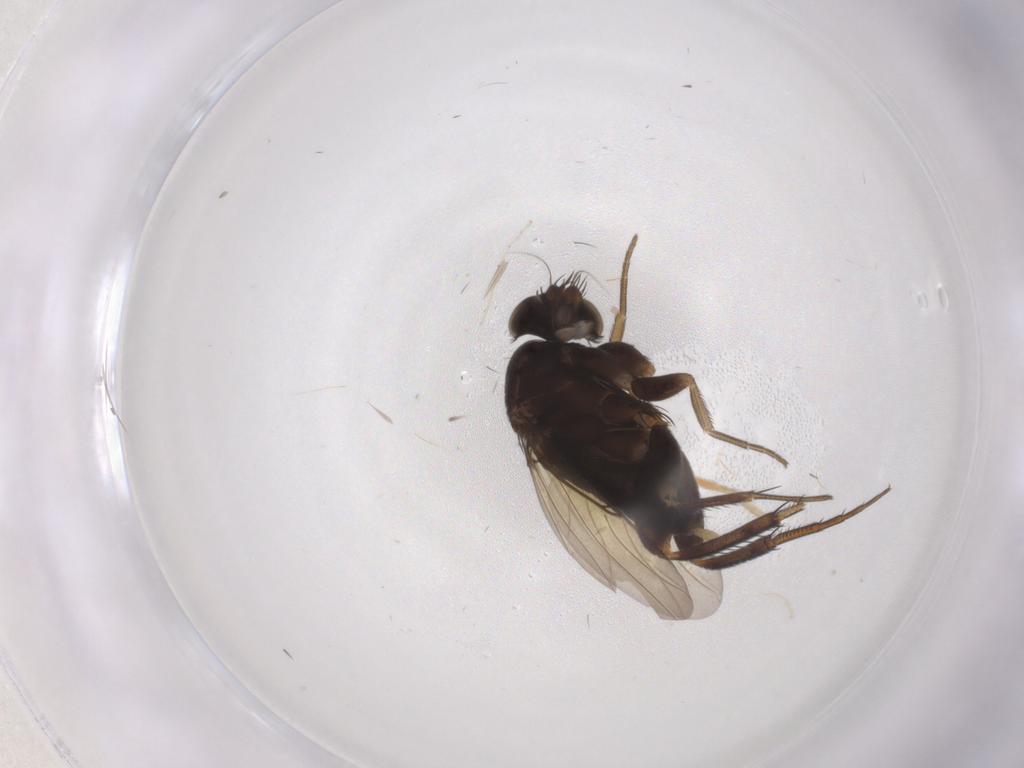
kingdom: Animalia
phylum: Arthropoda
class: Insecta
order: Diptera
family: Phoridae
